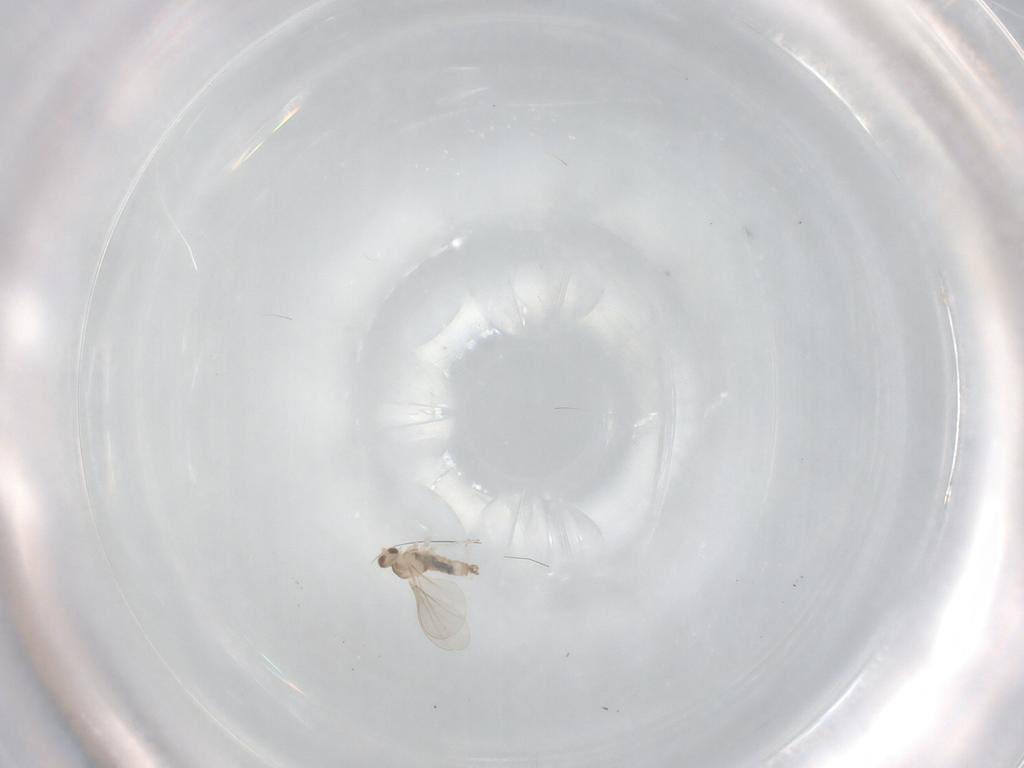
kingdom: Animalia
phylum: Arthropoda
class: Insecta
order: Diptera
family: Cecidomyiidae
